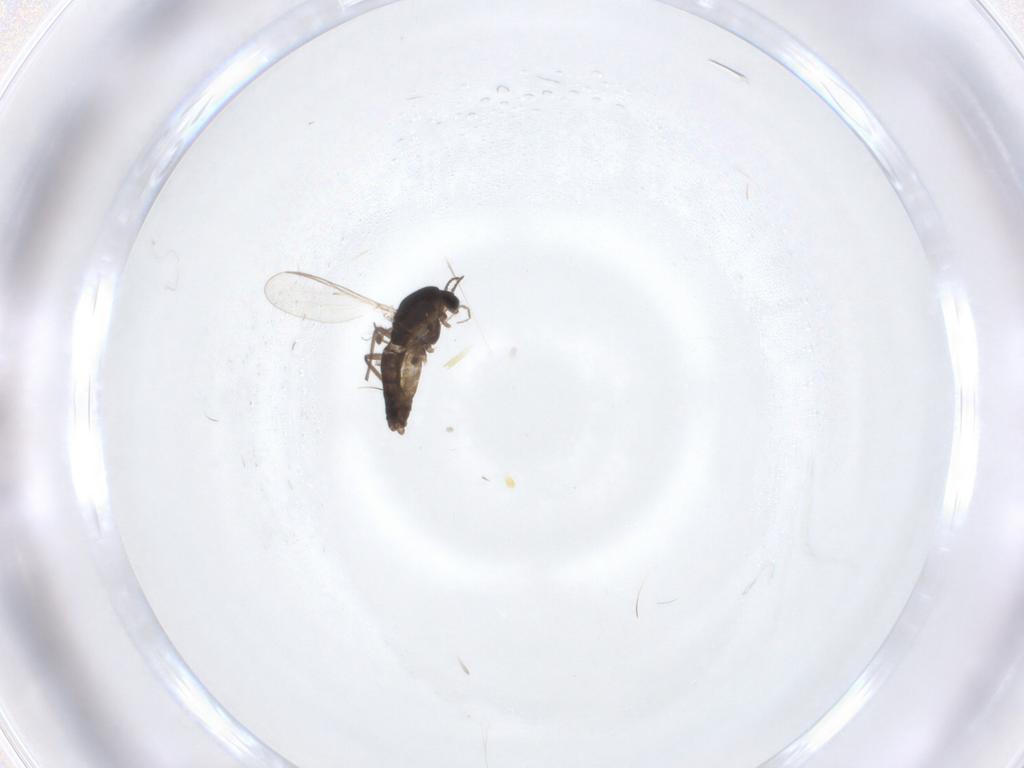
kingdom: Animalia
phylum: Arthropoda
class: Insecta
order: Diptera
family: Chironomidae
